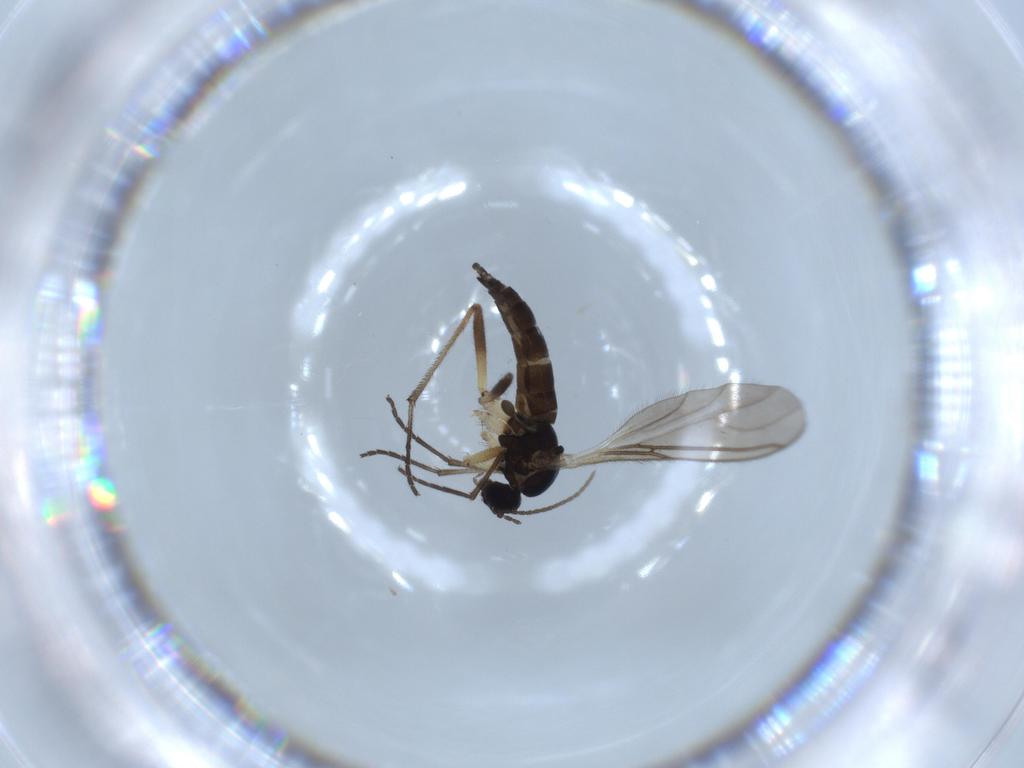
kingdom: Animalia
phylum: Arthropoda
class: Insecta
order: Diptera
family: Sciaridae
